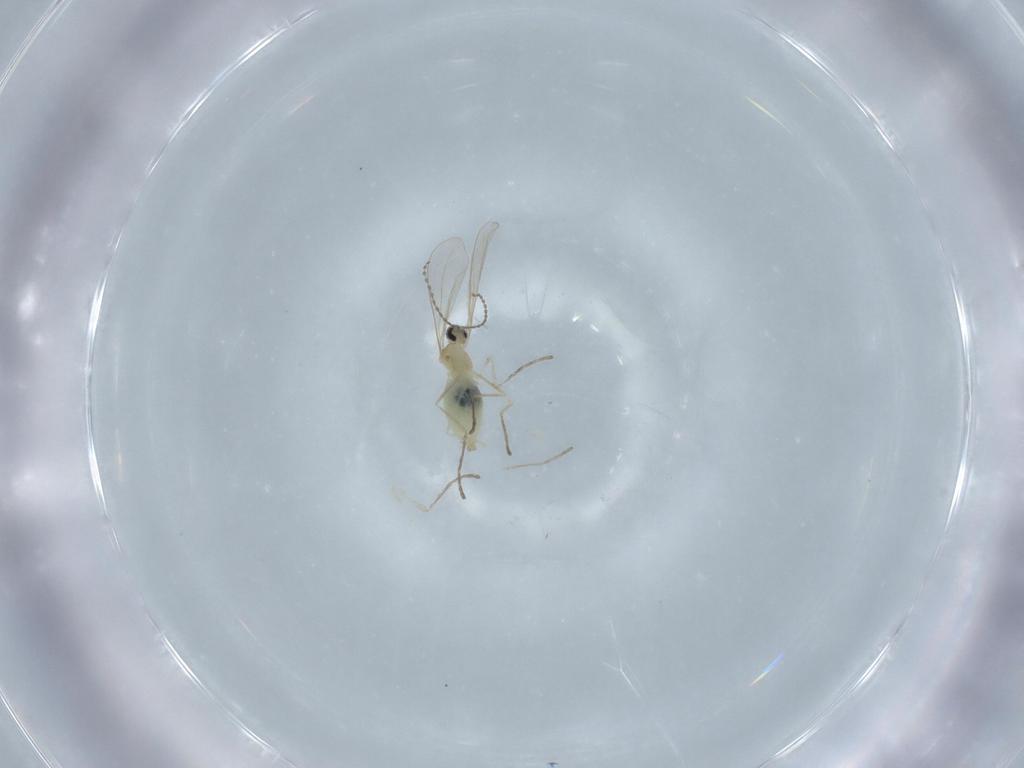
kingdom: Animalia
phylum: Arthropoda
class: Insecta
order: Diptera
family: Cecidomyiidae
